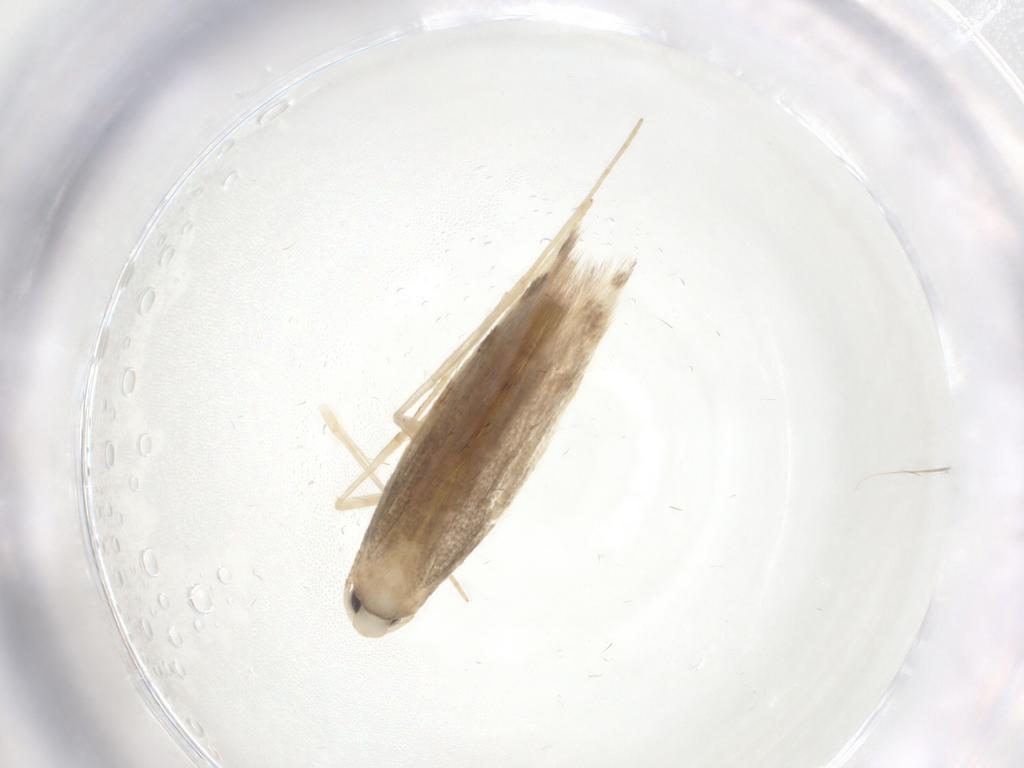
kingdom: Animalia
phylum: Arthropoda
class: Insecta
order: Lepidoptera
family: Gracillariidae
